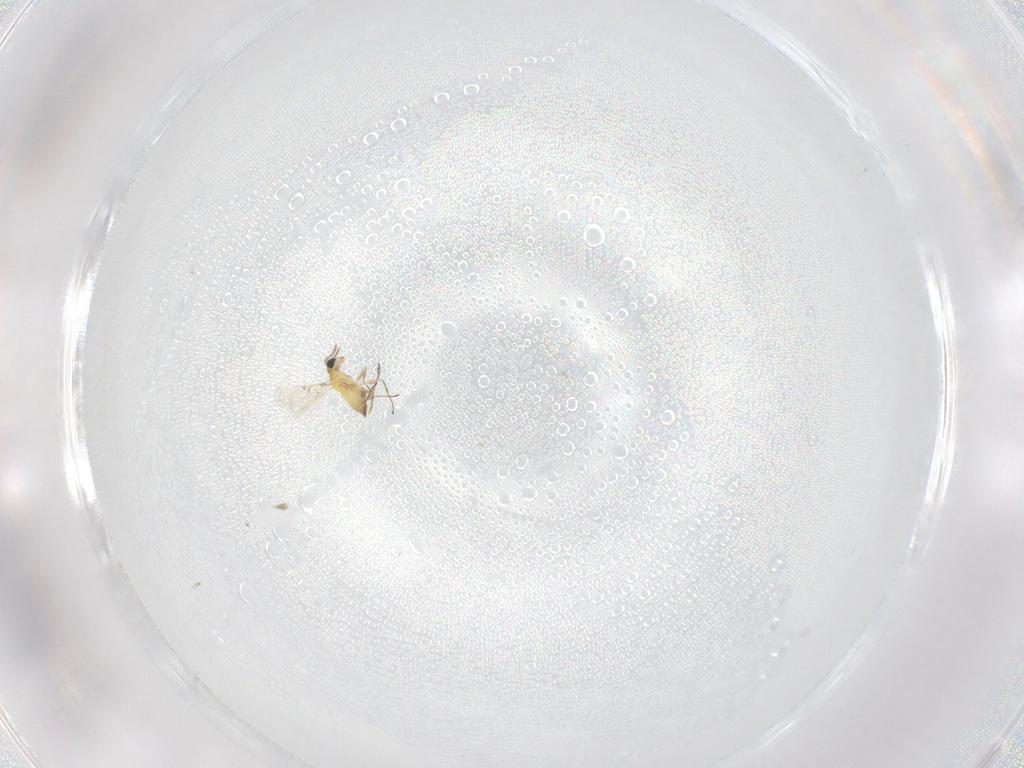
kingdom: Animalia
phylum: Arthropoda
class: Insecta
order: Hymenoptera
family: Trichogrammatidae
